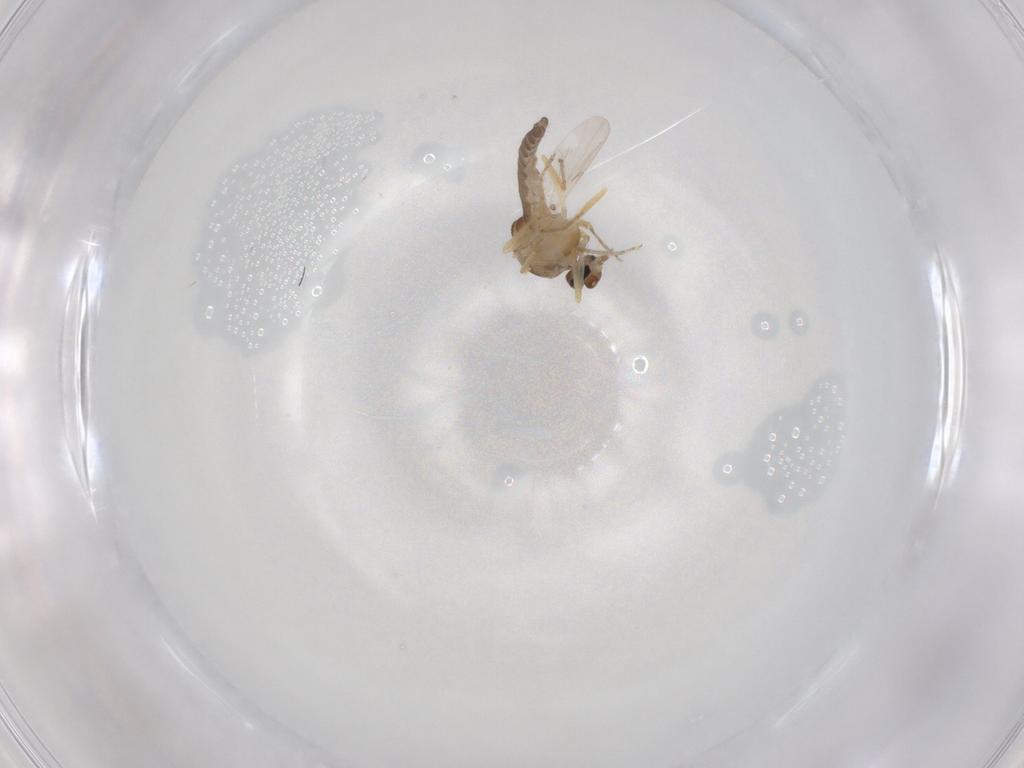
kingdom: Animalia
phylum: Arthropoda
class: Insecta
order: Diptera
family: Ceratopogonidae
